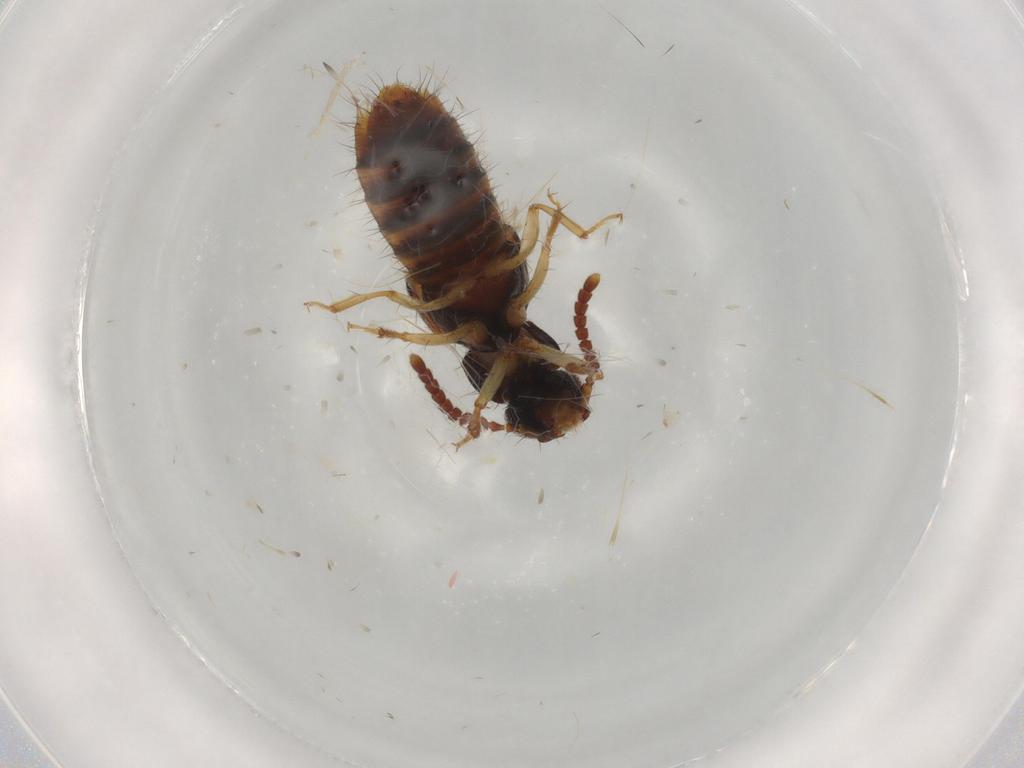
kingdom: Animalia
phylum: Arthropoda
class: Insecta
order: Coleoptera
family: Staphylinidae
